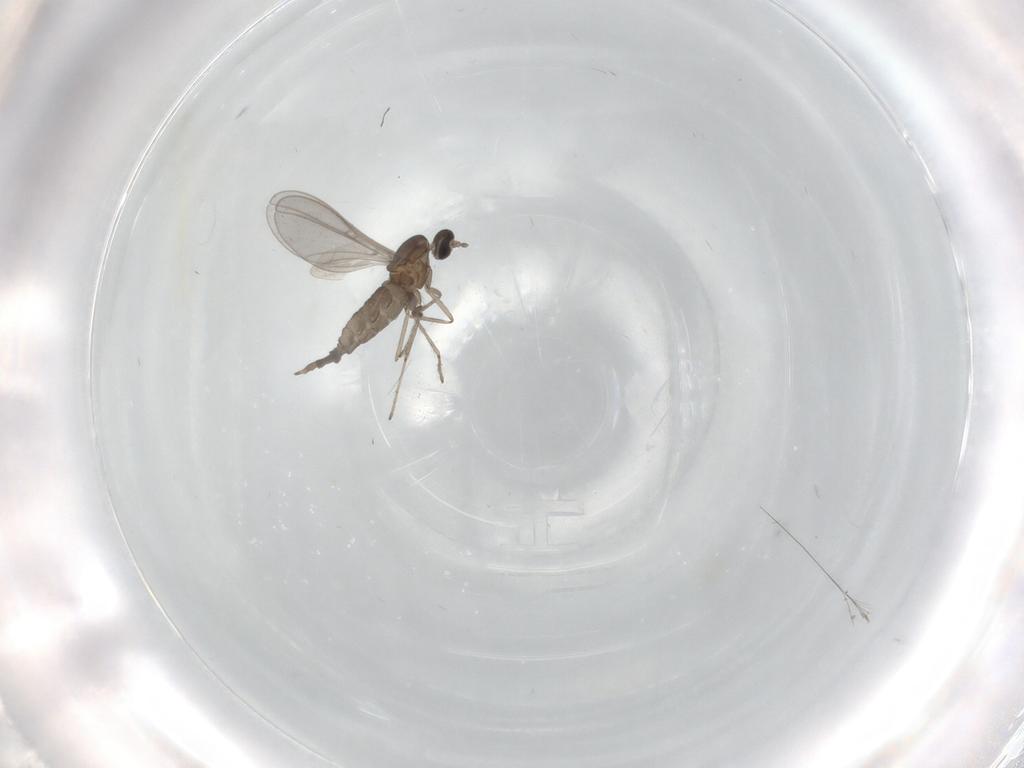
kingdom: Animalia
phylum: Arthropoda
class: Insecta
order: Diptera
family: Cecidomyiidae
